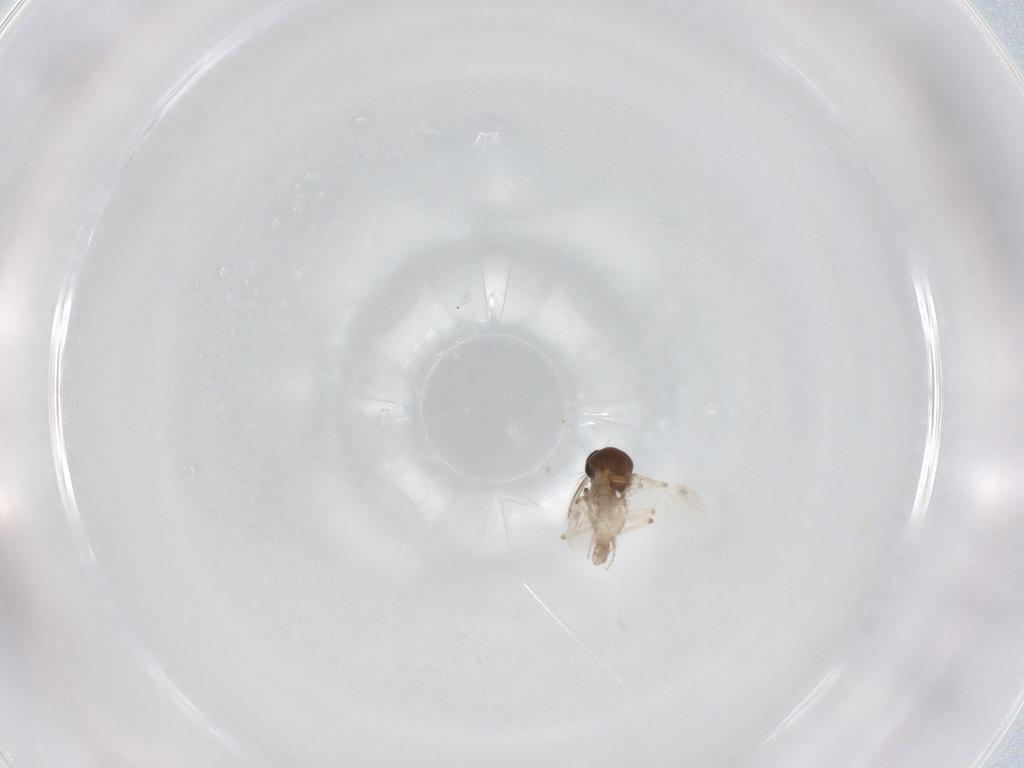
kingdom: Animalia
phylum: Arthropoda
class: Insecta
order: Diptera
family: Ceratopogonidae
